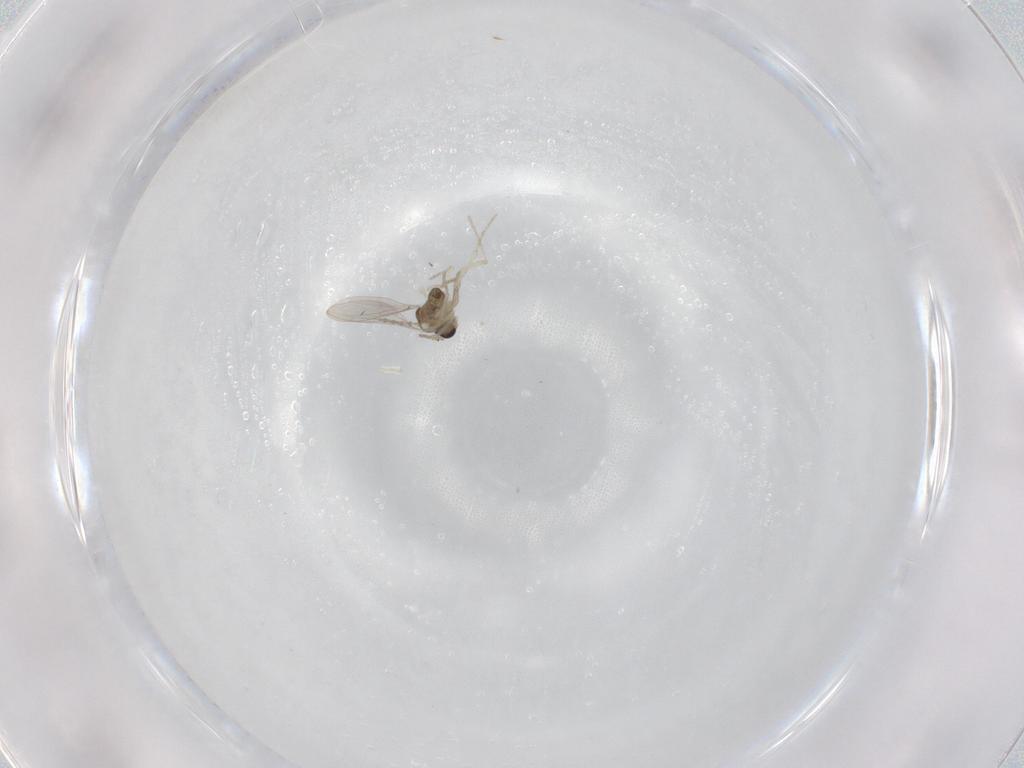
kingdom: Animalia
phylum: Arthropoda
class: Insecta
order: Diptera
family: Cecidomyiidae
